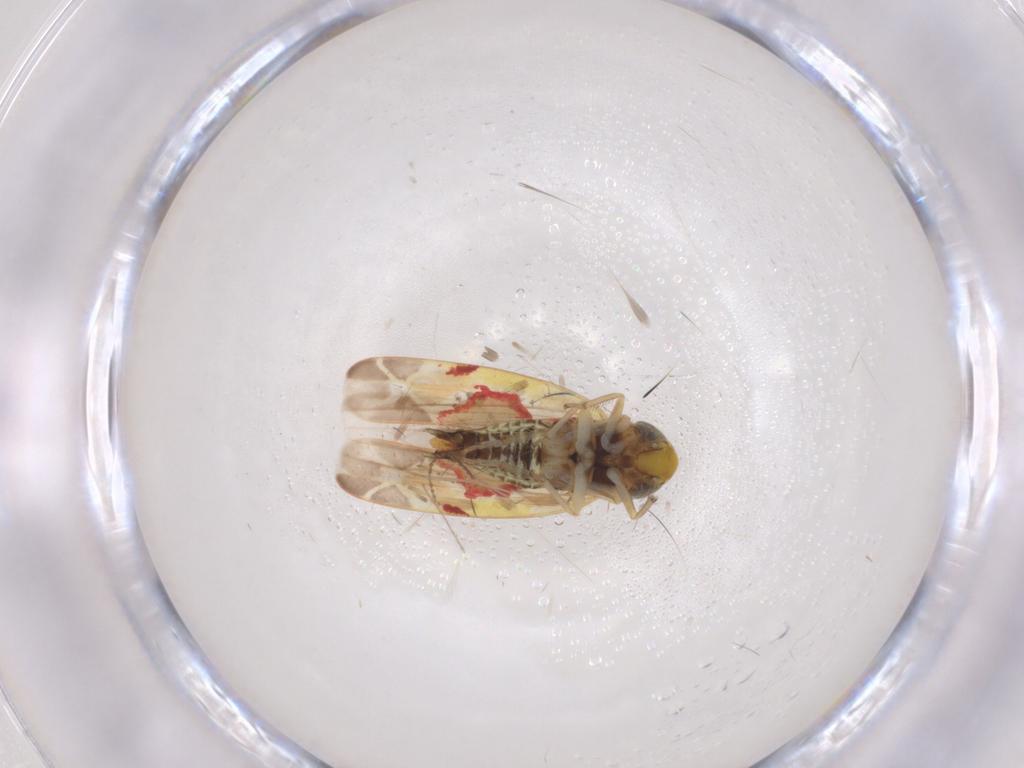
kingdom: Animalia
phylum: Arthropoda
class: Insecta
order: Hemiptera
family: Cicadellidae
